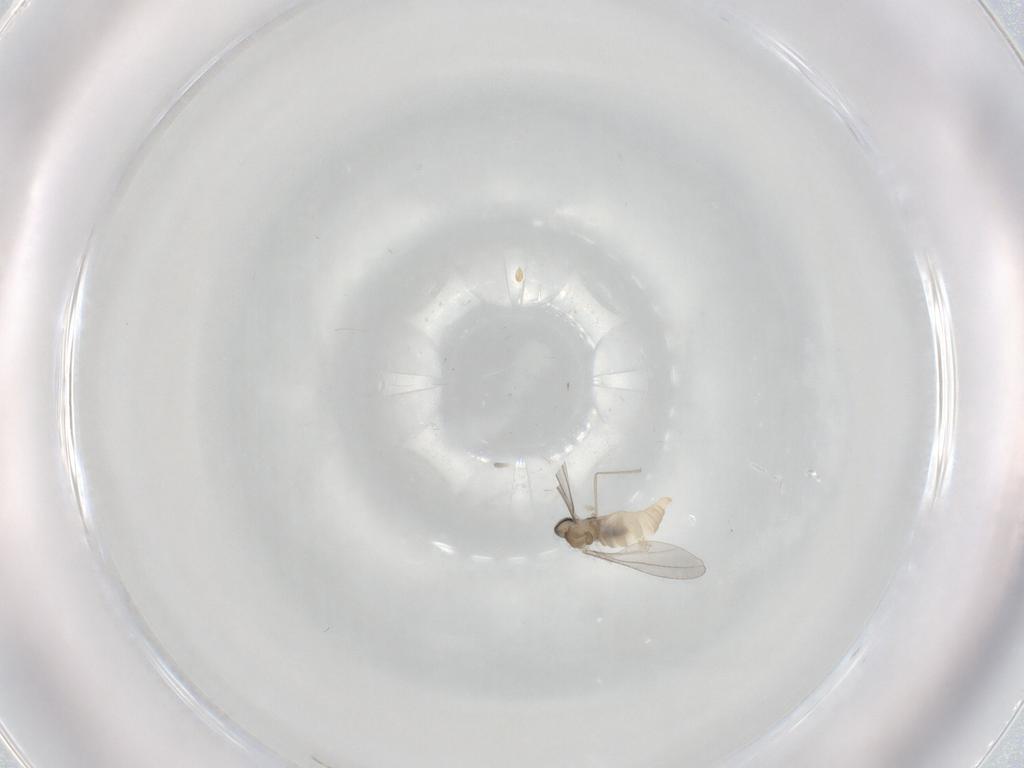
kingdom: Animalia
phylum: Arthropoda
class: Insecta
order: Diptera
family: Cecidomyiidae
